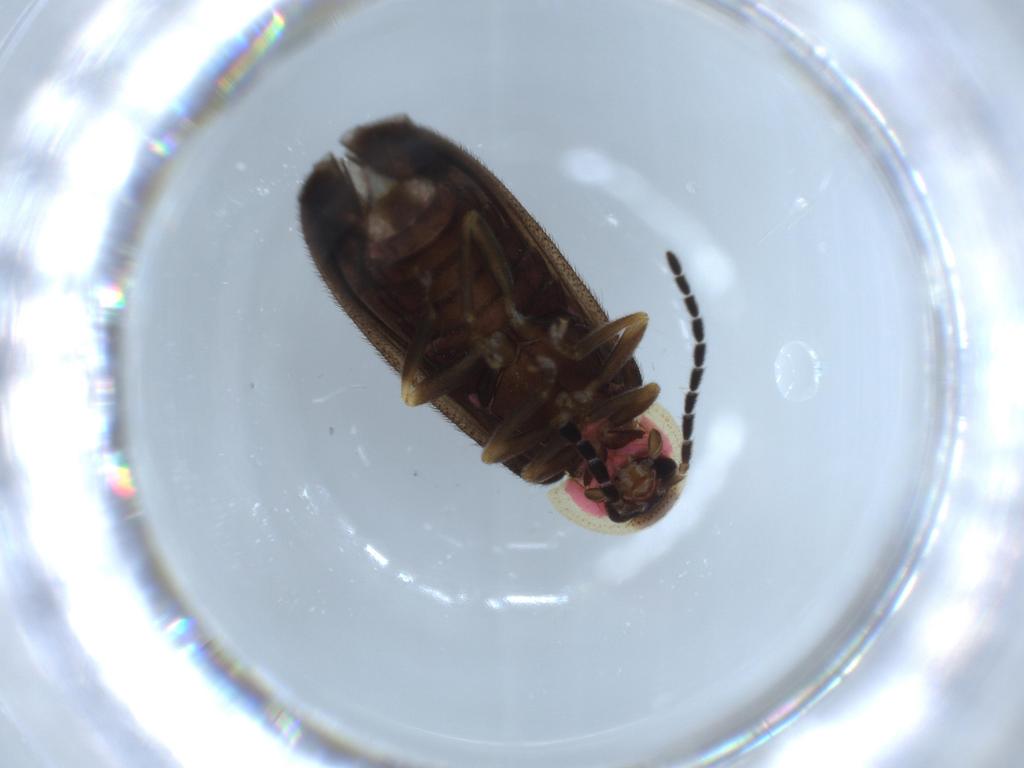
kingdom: Animalia
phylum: Arthropoda
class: Insecta
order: Coleoptera
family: Lampyridae
